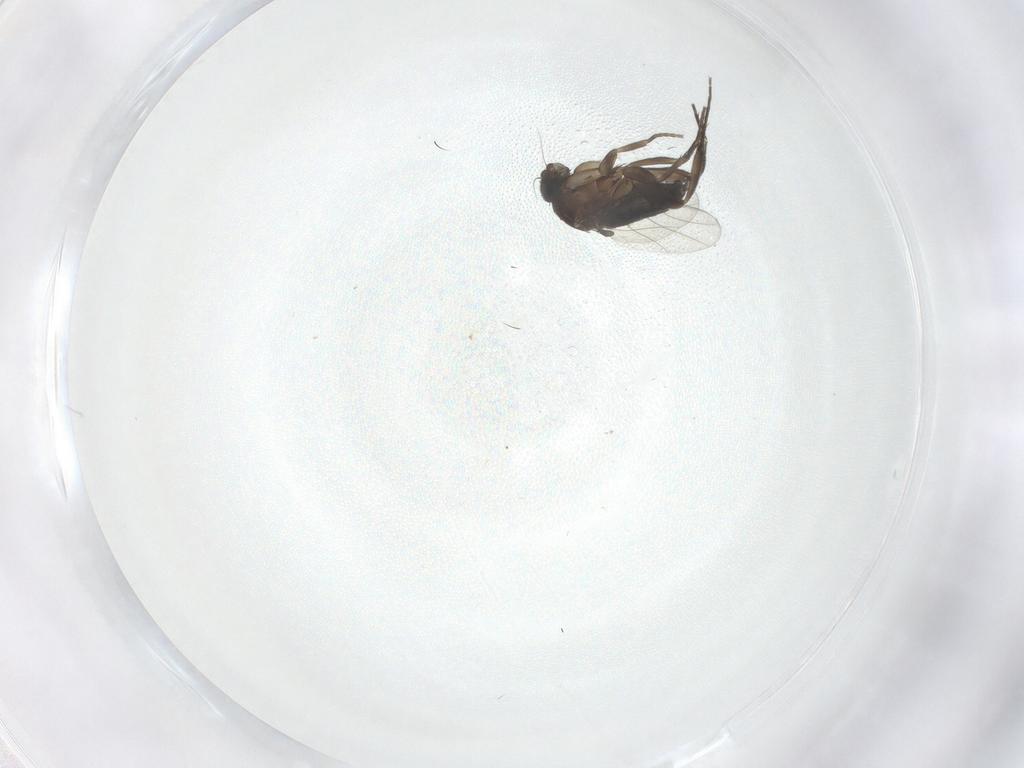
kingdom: Animalia
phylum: Arthropoda
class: Insecta
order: Diptera
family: Phoridae
